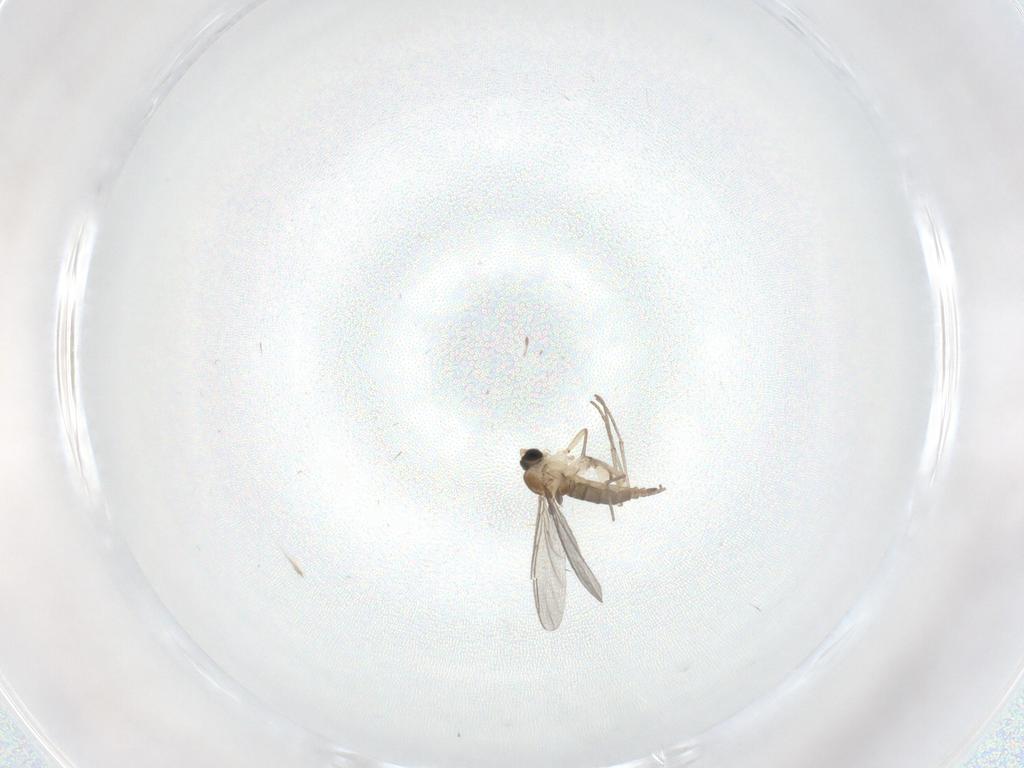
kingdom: Animalia
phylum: Arthropoda
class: Insecta
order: Diptera
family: Sciaridae
